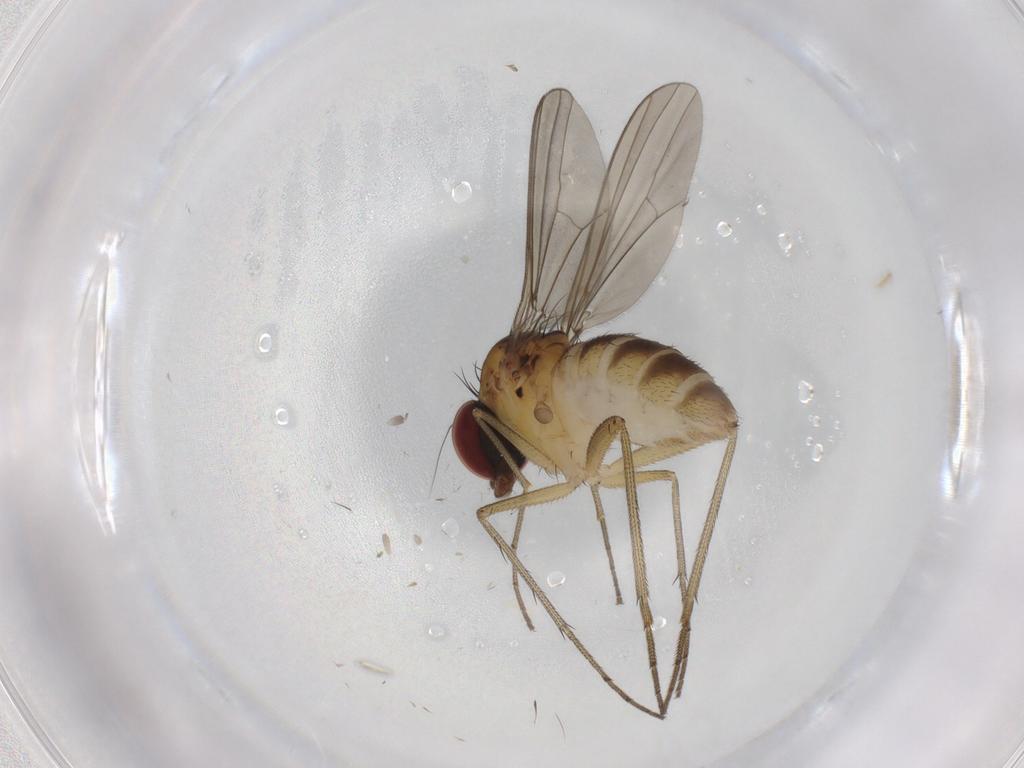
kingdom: Animalia
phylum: Arthropoda
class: Insecta
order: Diptera
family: Dolichopodidae
